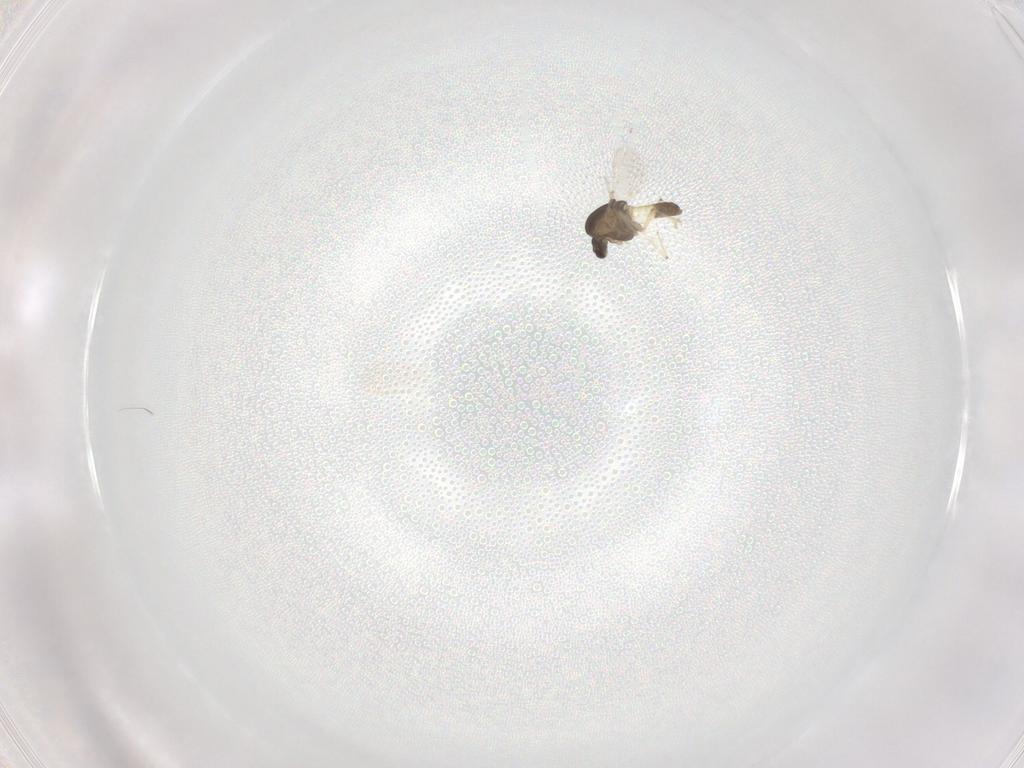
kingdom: Animalia
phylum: Arthropoda
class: Insecta
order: Diptera
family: Chironomidae
